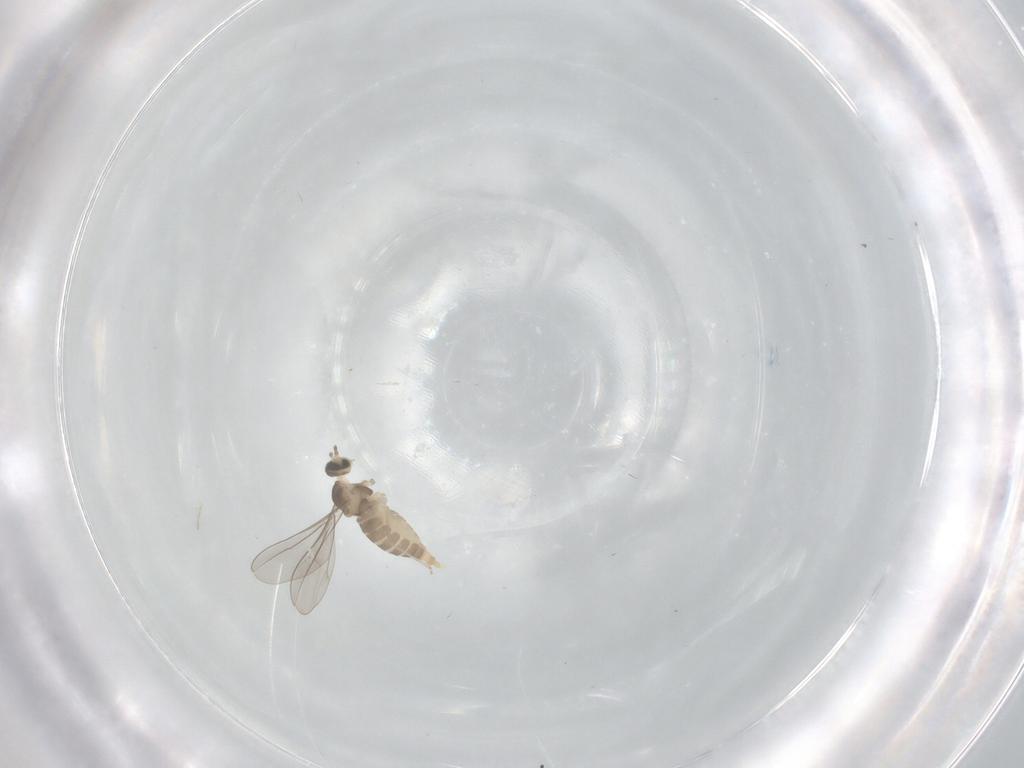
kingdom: Animalia
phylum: Arthropoda
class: Insecta
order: Diptera
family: Cecidomyiidae
